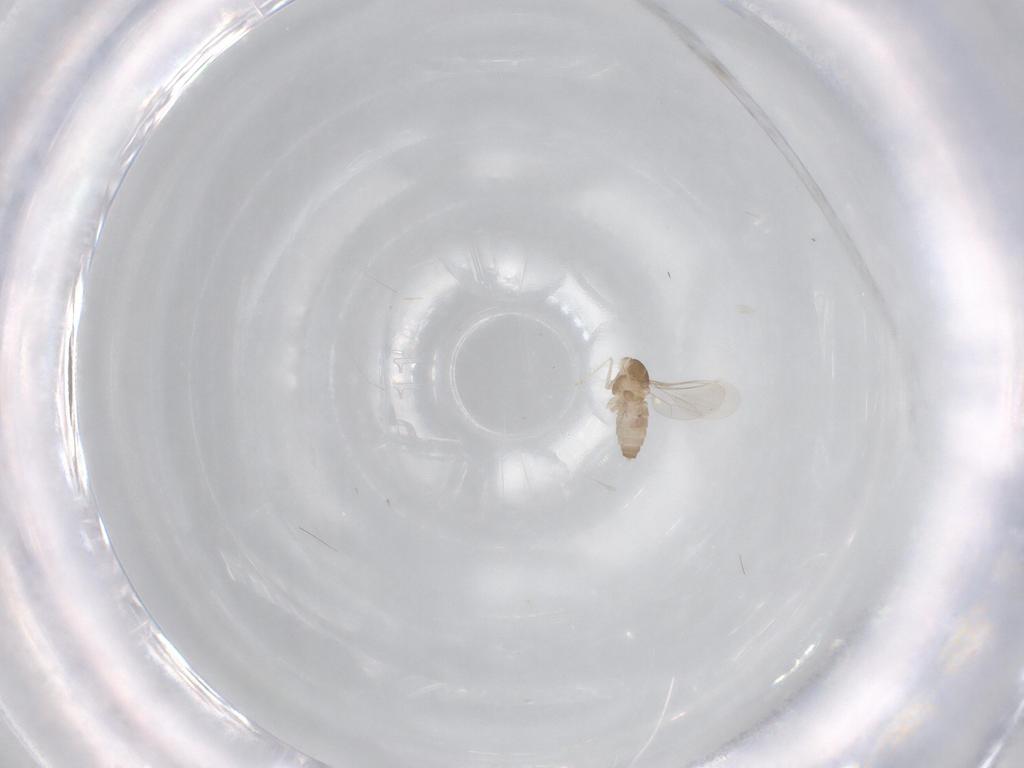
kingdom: Animalia
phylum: Arthropoda
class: Insecta
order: Diptera
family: Cecidomyiidae
